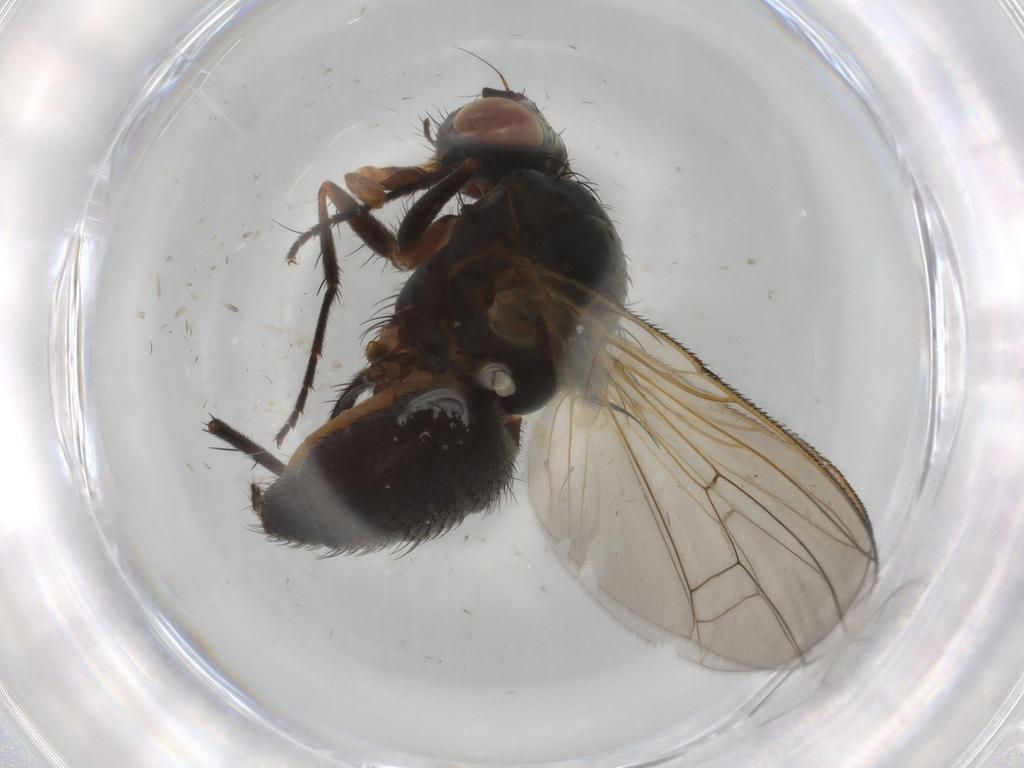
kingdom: Animalia
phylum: Arthropoda
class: Insecta
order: Diptera
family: Anthomyiidae
